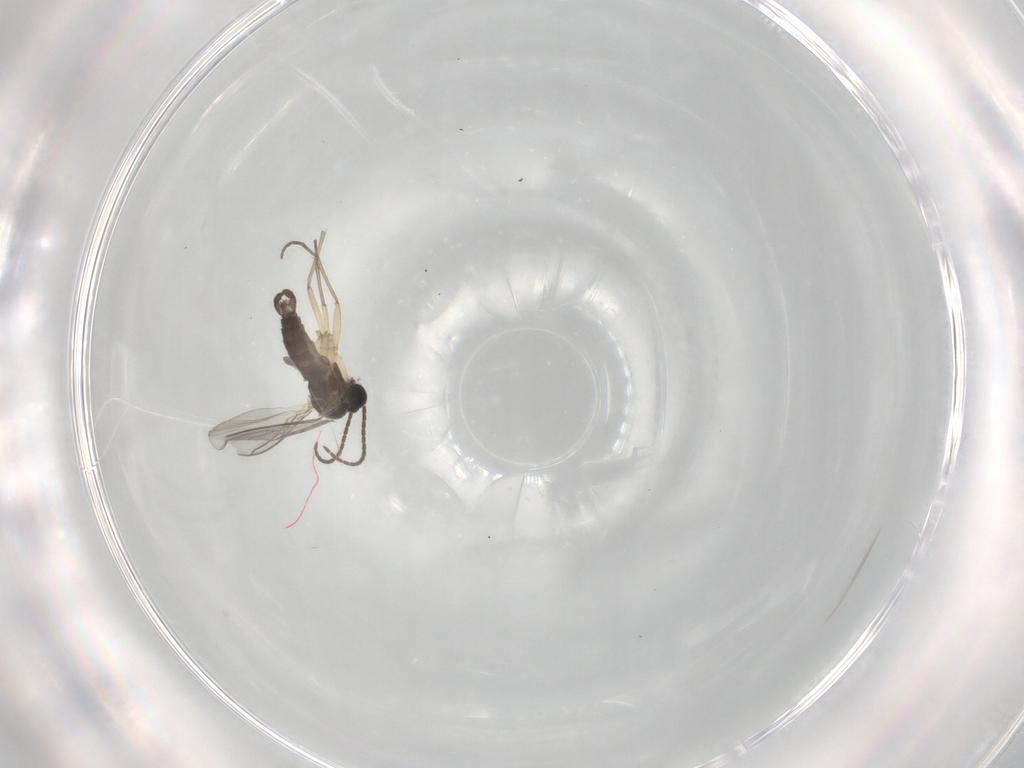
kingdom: Animalia
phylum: Arthropoda
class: Insecta
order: Diptera
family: Sciaridae
